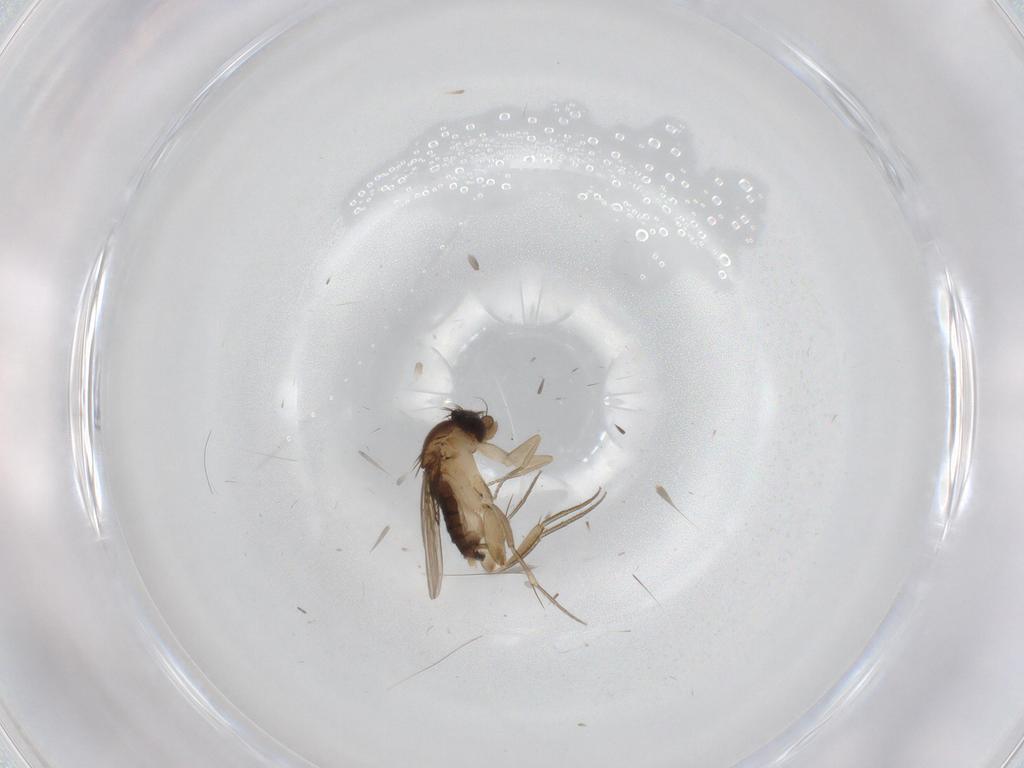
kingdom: Animalia
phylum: Arthropoda
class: Insecta
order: Diptera
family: Phoridae
